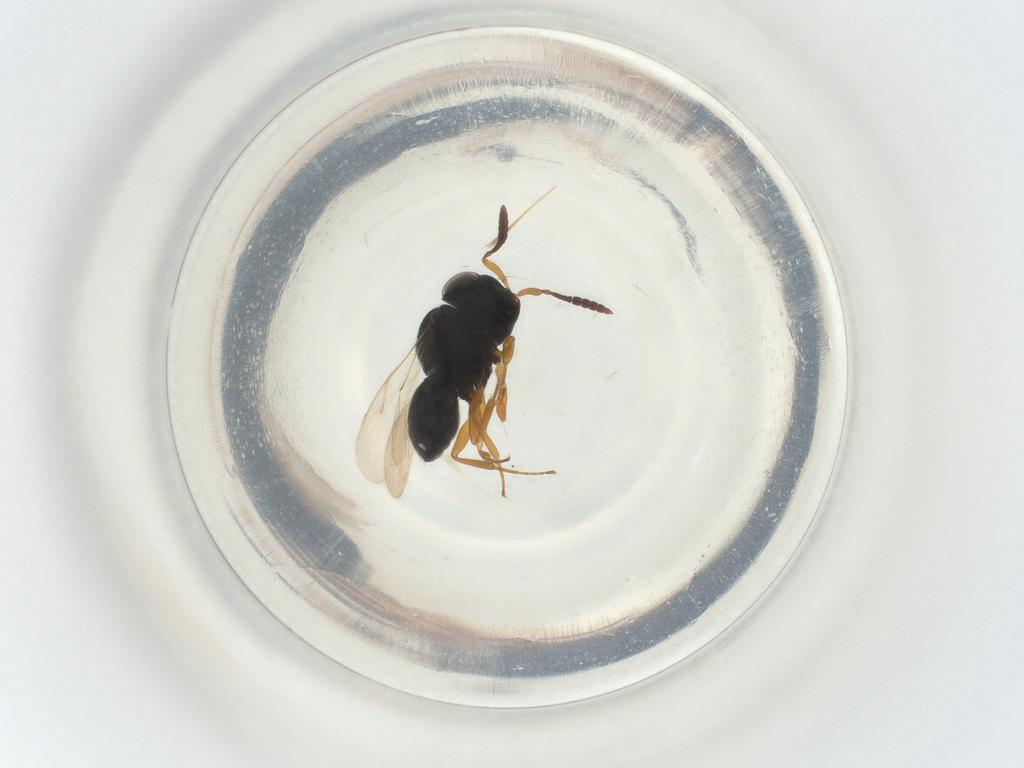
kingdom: Animalia
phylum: Arthropoda
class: Insecta
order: Hymenoptera
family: Scelionidae
